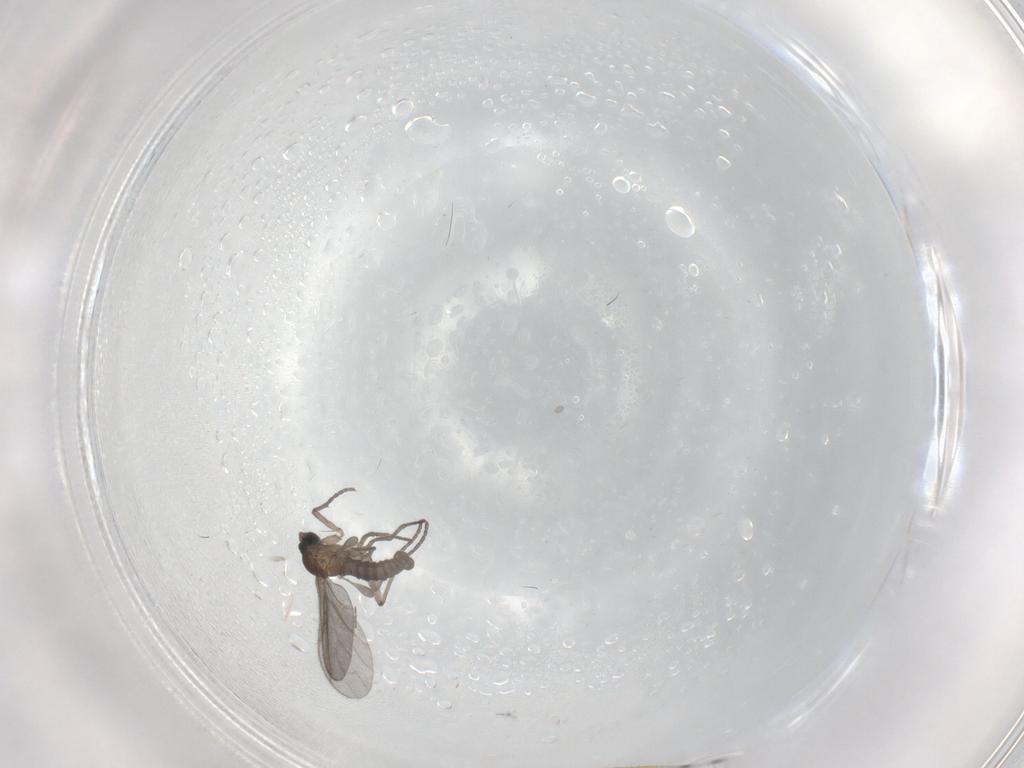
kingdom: Animalia
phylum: Arthropoda
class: Insecta
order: Diptera
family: Limoniidae
